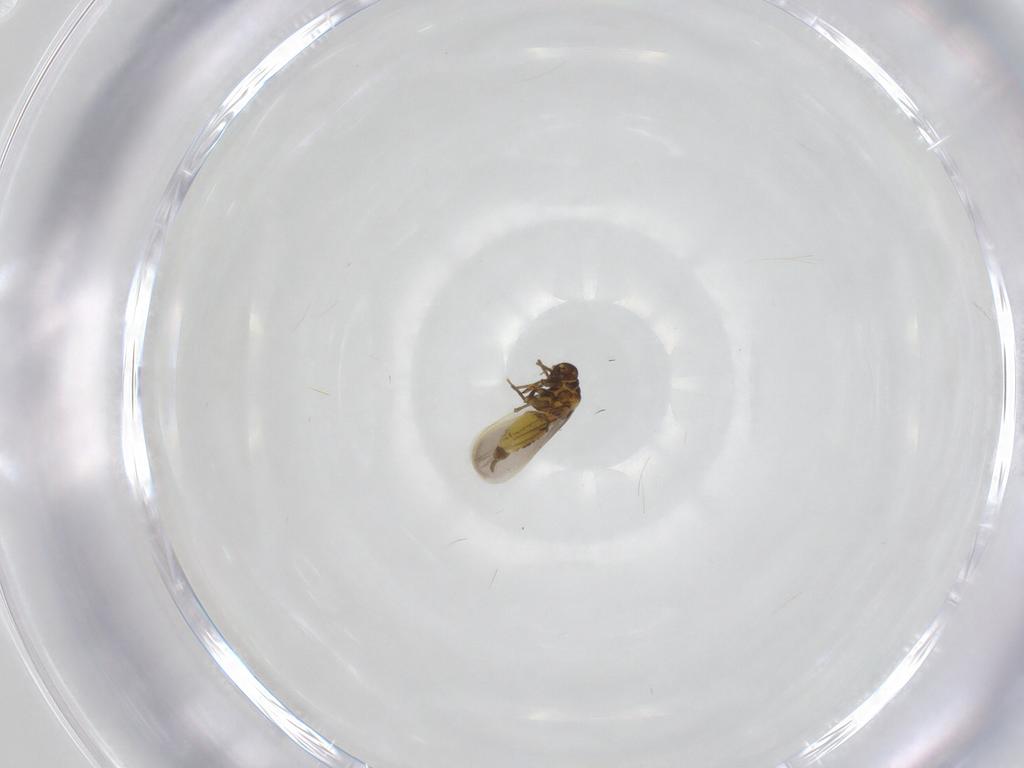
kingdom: Animalia
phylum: Arthropoda
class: Insecta
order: Hemiptera
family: Aleyrodidae
